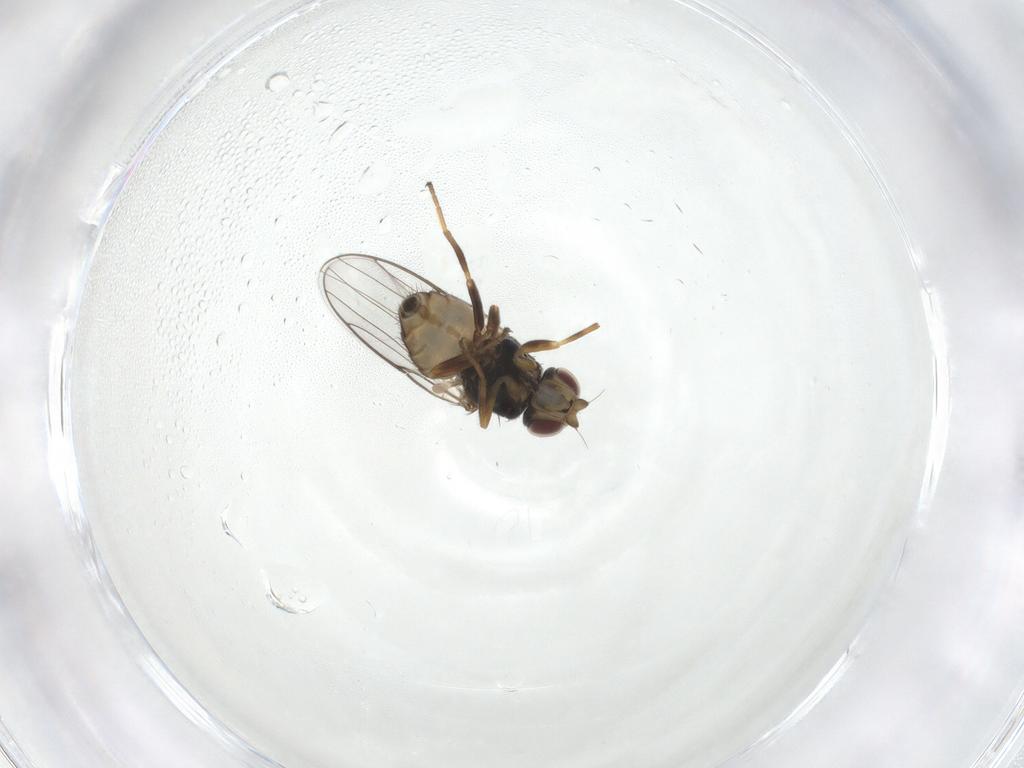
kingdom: Animalia
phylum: Arthropoda
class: Insecta
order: Diptera
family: Chloropidae
